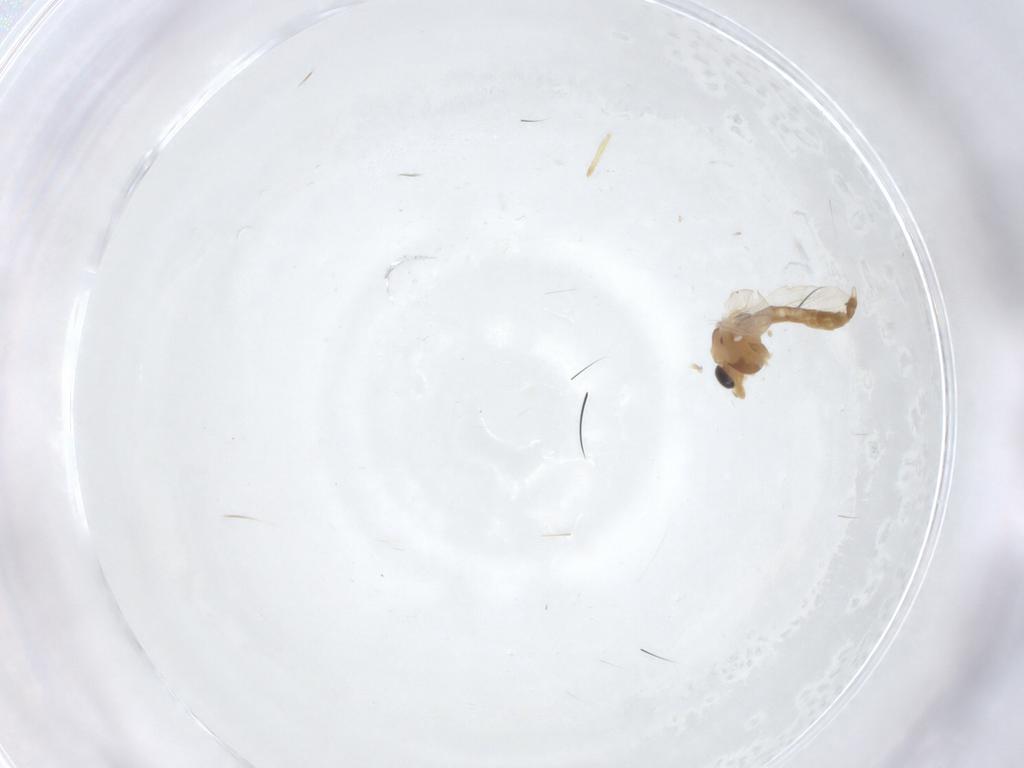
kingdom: Animalia
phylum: Arthropoda
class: Insecta
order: Diptera
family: Chironomidae
